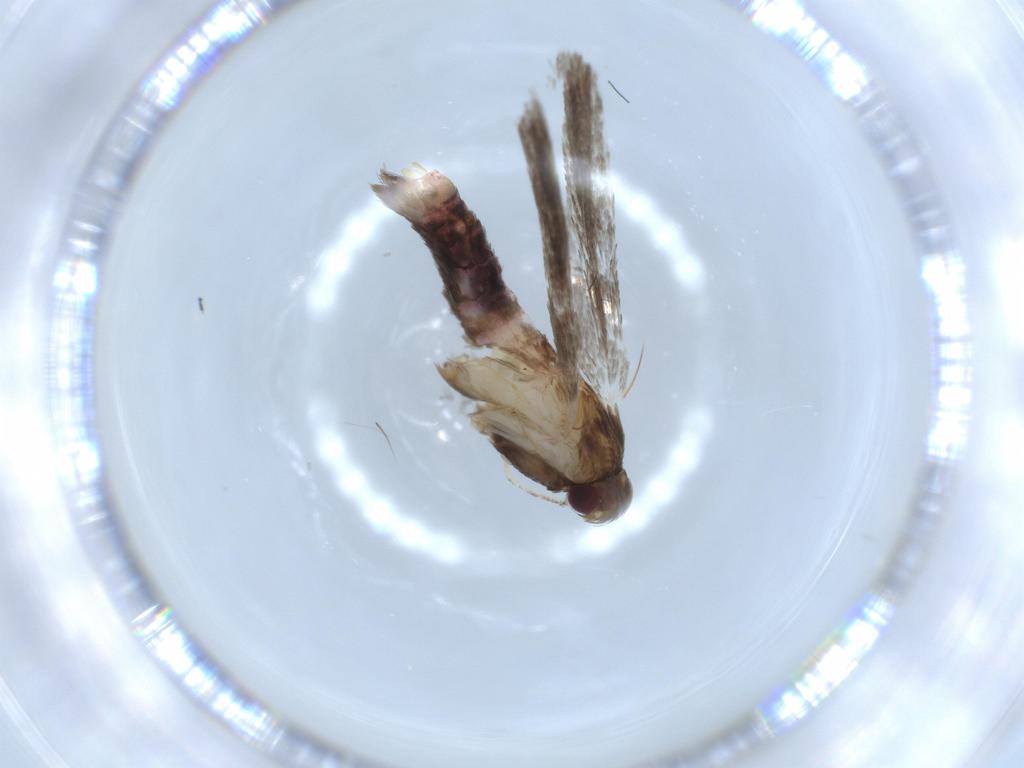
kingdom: Animalia
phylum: Arthropoda
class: Insecta
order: Lepidoptera
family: Gelechiidae
